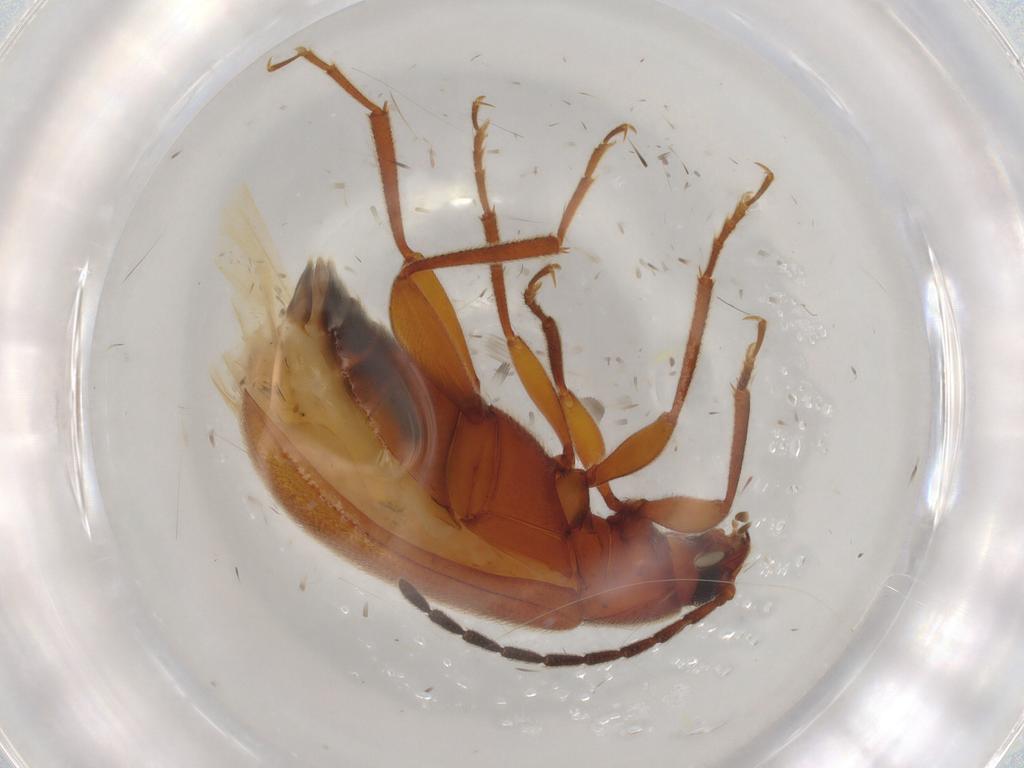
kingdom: Animalia
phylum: Arthropoda
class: Insecta
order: Coleoptera
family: Tenebrionidae
